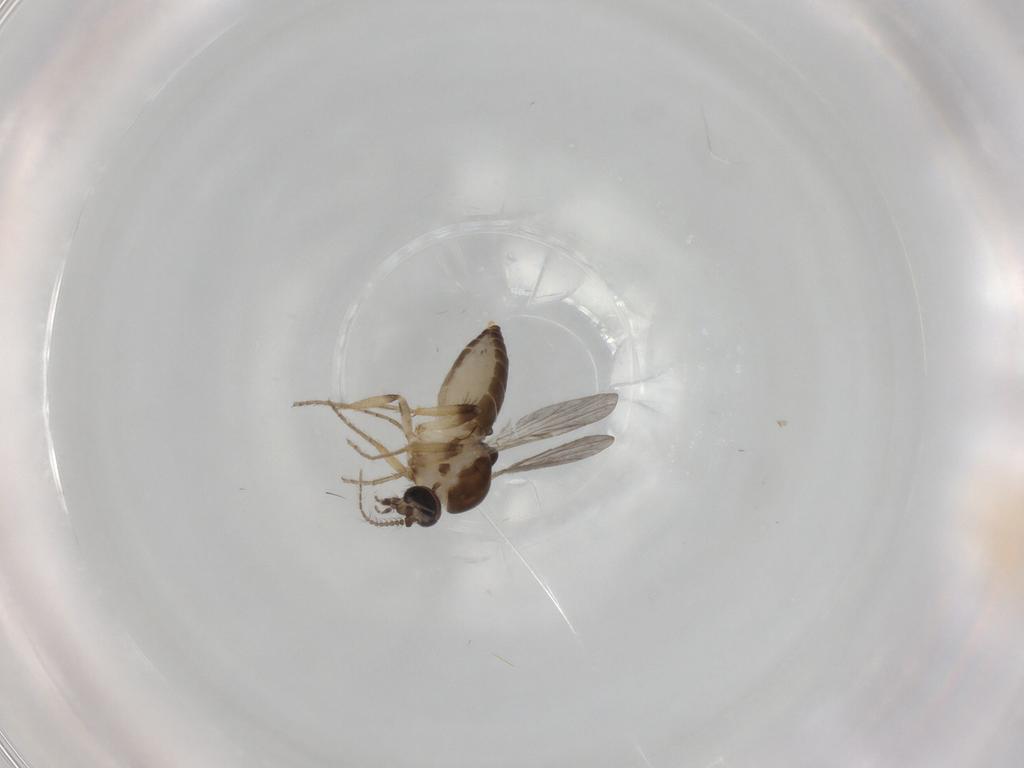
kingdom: Animalia
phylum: Arthropoda
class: Insecta
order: Diptera
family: Ceratopogonidae
